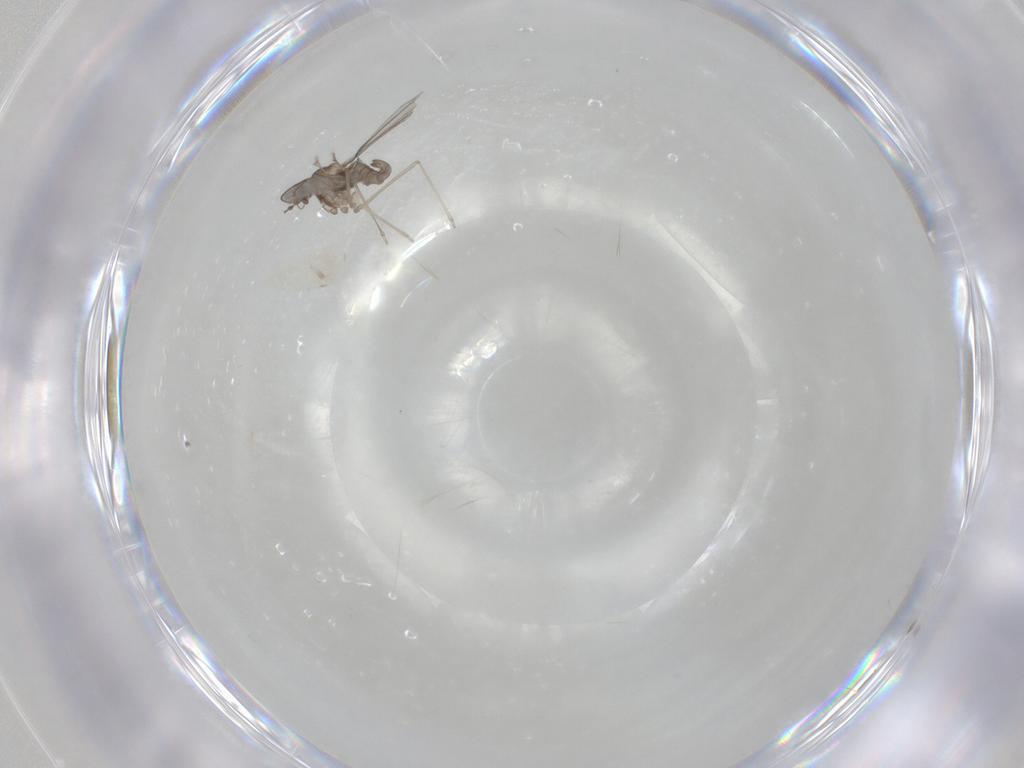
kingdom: Animalia
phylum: Arthropoda
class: Insecta
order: Diptera
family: Cecidomyiidae
